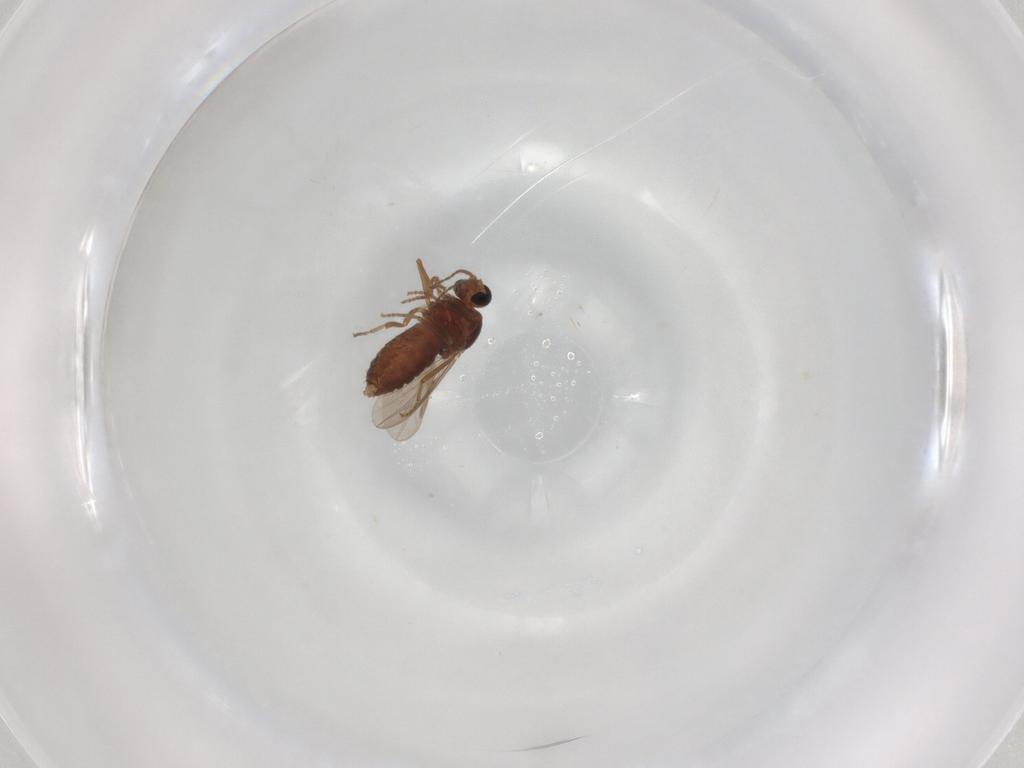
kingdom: Animalia
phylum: Arthropoda
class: Insecta
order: Diptera
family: Ceratopogonidae
